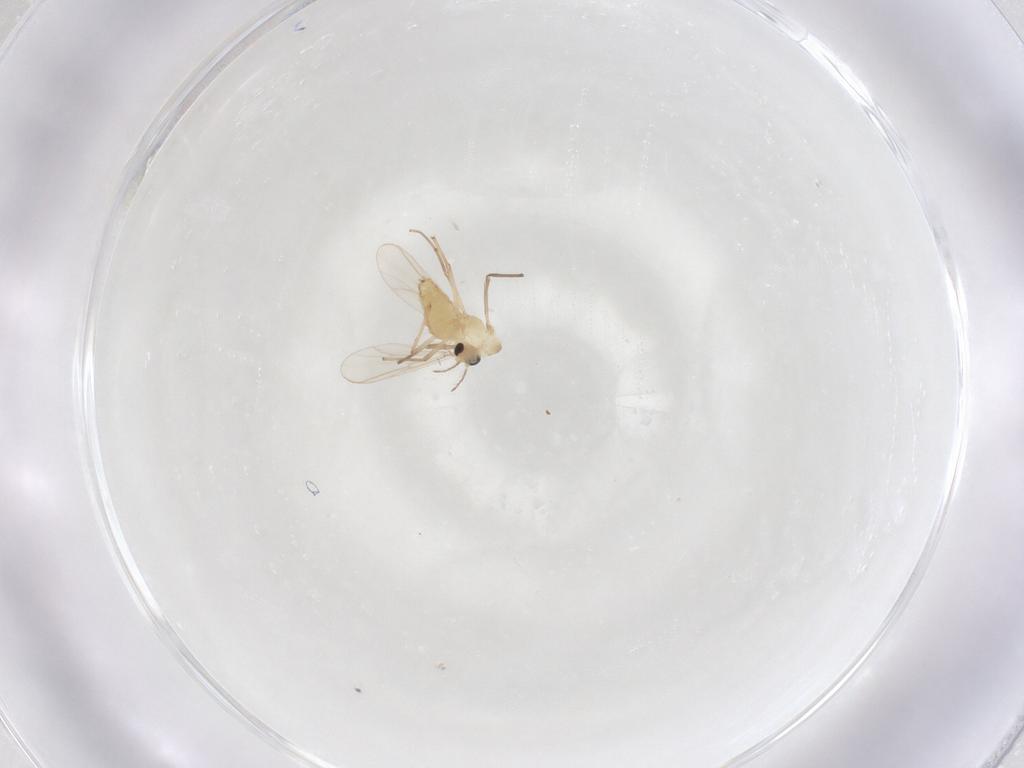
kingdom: Animalia
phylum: Arthropoda
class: Insecta
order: Diptera
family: Chironomidae
